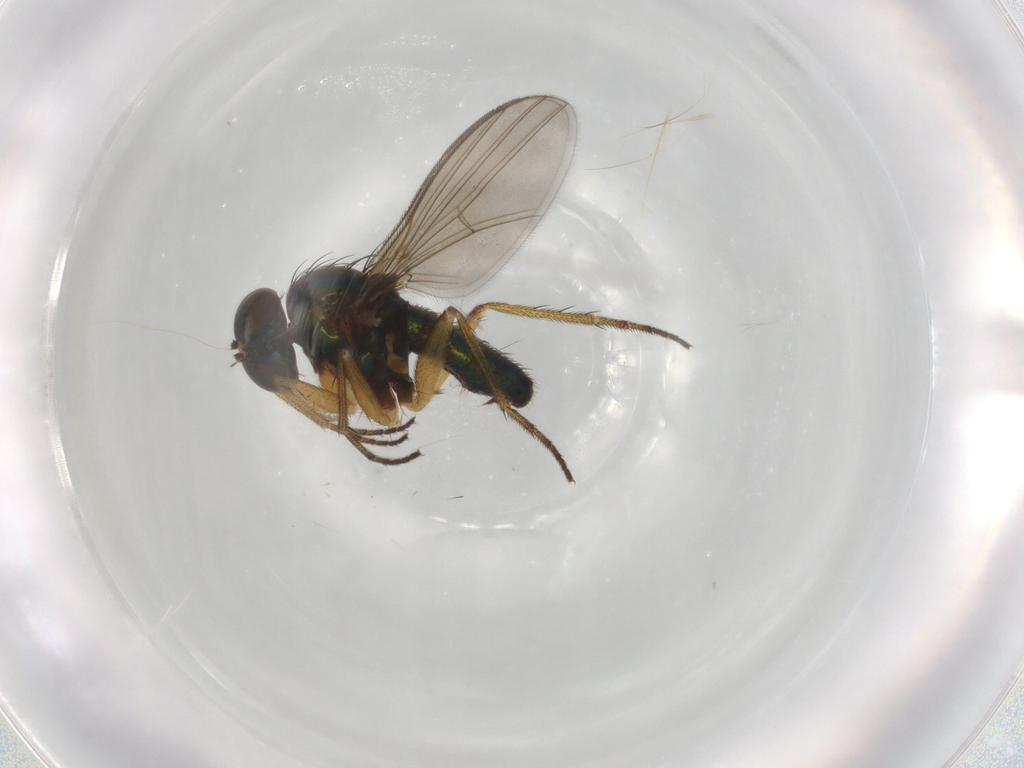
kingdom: Animalia
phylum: Arthropoda
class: Insecta
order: Diptera
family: Dolichopodidae
